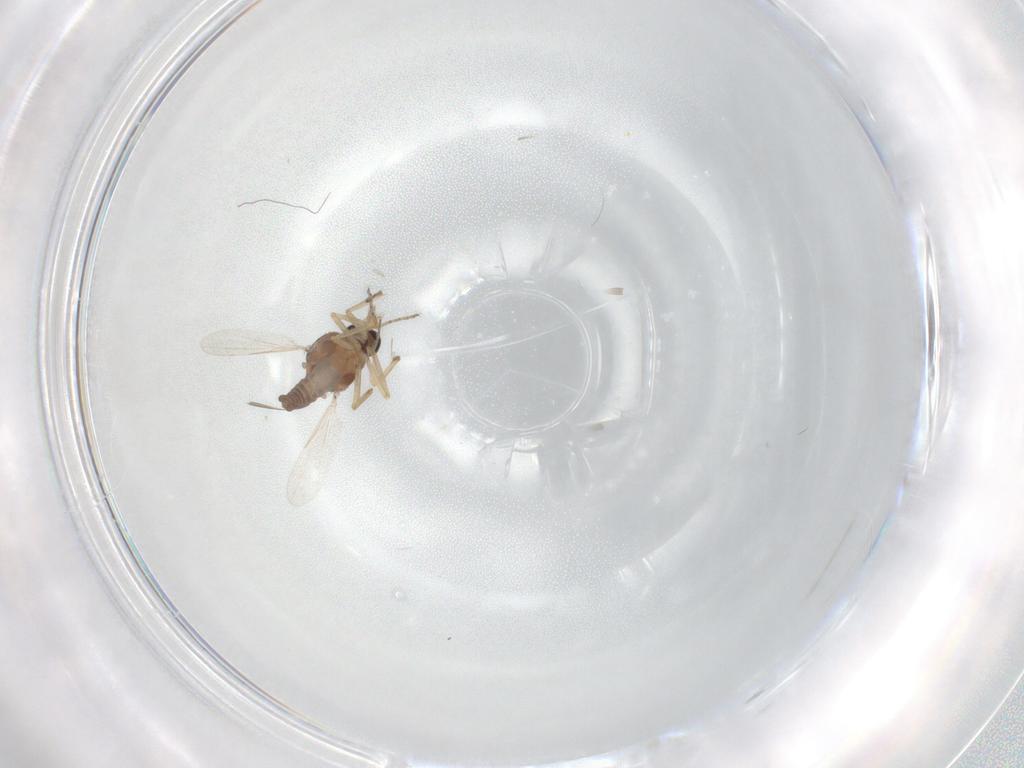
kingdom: Animalia
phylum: Arthropoda
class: Insecta
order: Diptera
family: Ceratopogonidae
